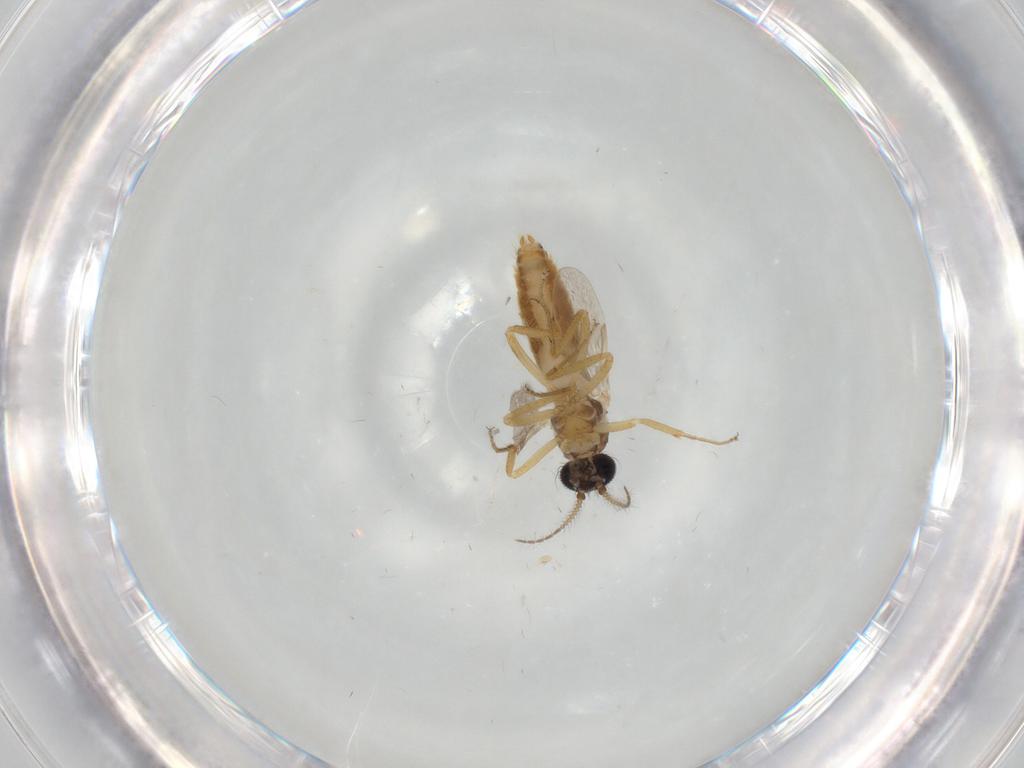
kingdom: Animalia
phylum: Arthropoda
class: Insecta
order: Diptera
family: Ceratopogonidae
